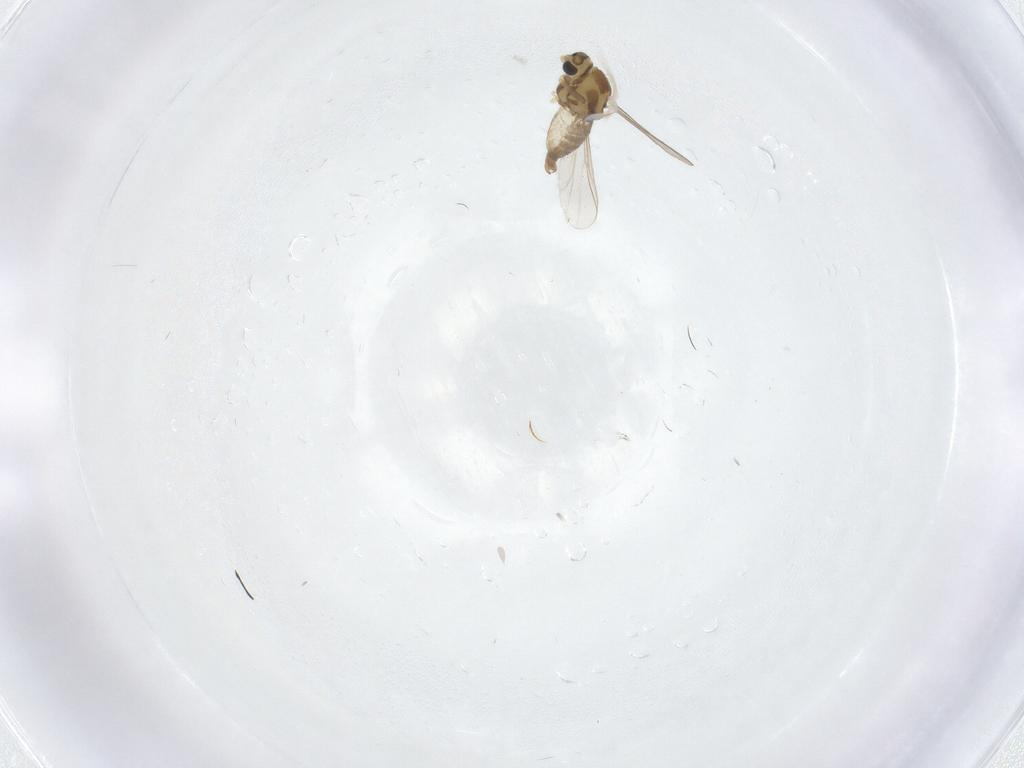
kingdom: Animalia
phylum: Arthropoda
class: Insecta
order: Diptera
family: Cecidomyiidae
